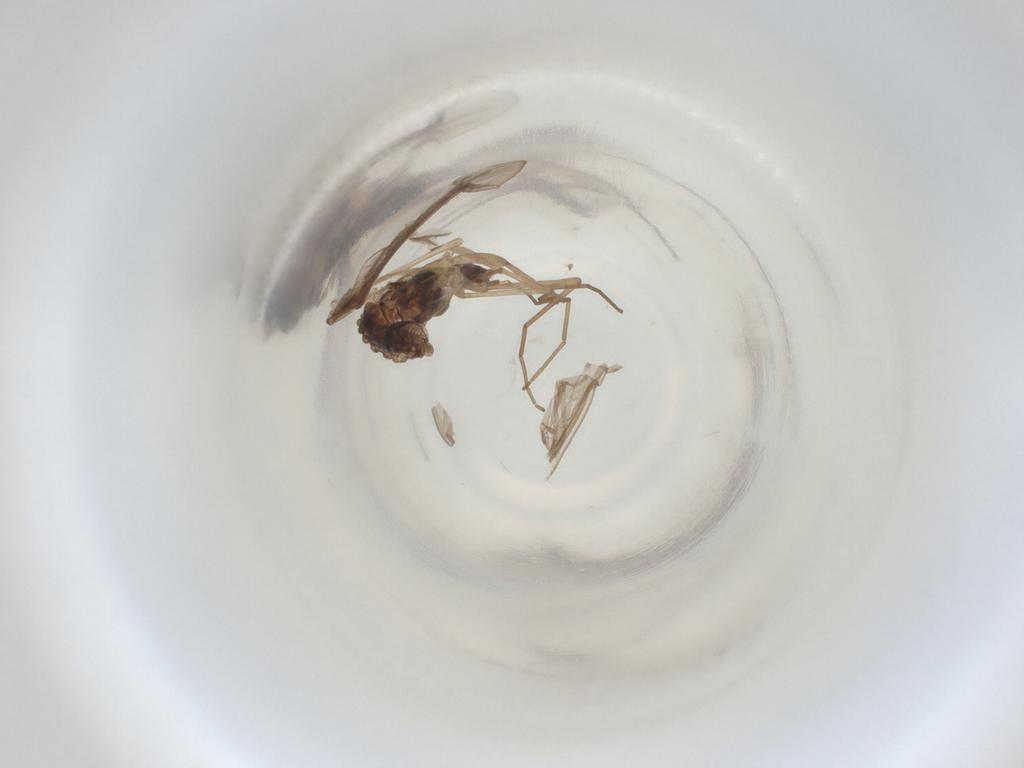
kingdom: Animalia
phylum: Arthropoda
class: Insecta
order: Diptera
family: Cecidomyiidae
